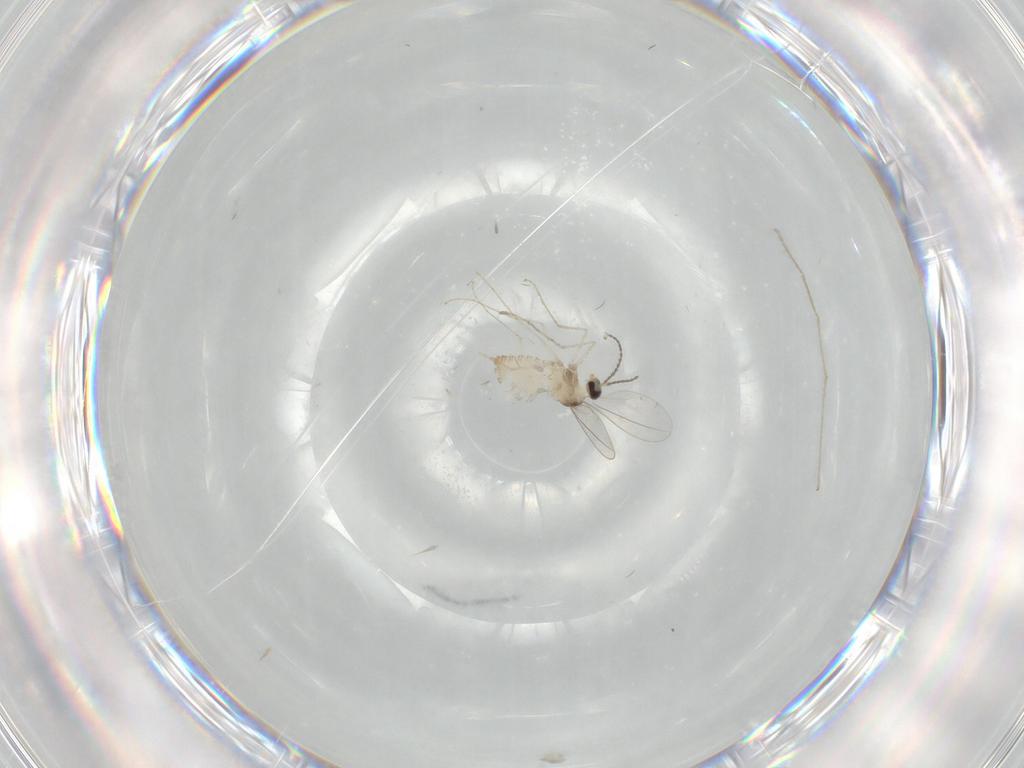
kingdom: Animalia
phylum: Arthropoda
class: Insecta
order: Diptera
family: Cecidomyiidae
